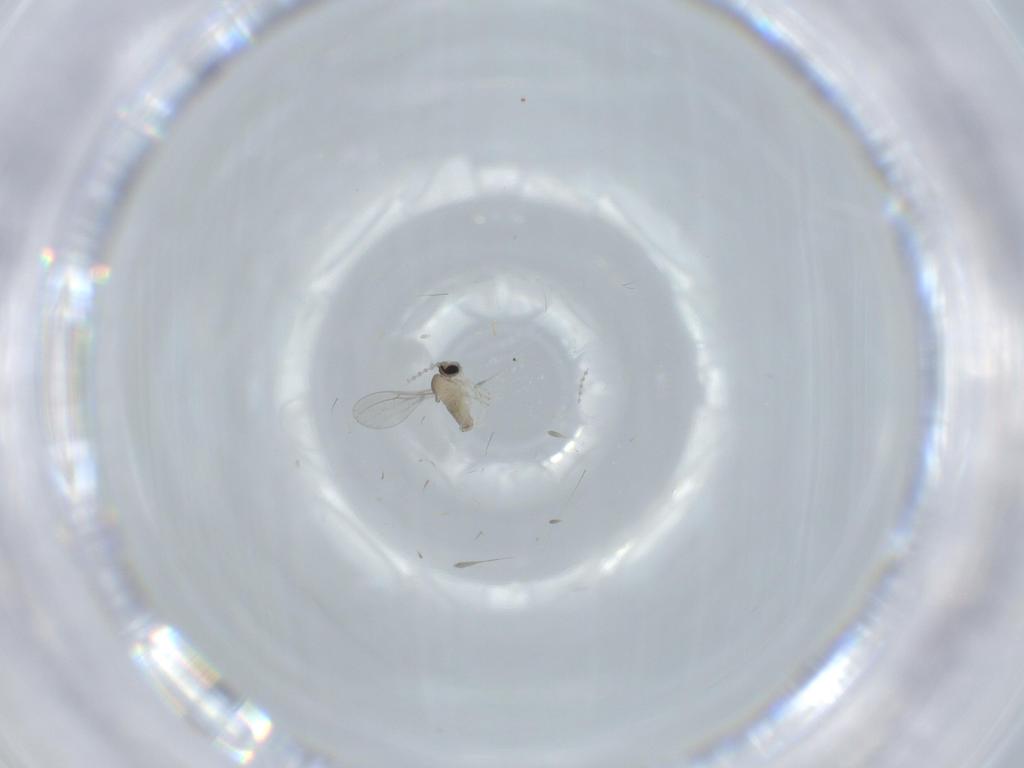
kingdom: Animalia
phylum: Arthropoda
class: Insecta
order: Diptera
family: Cecidomyiidae
